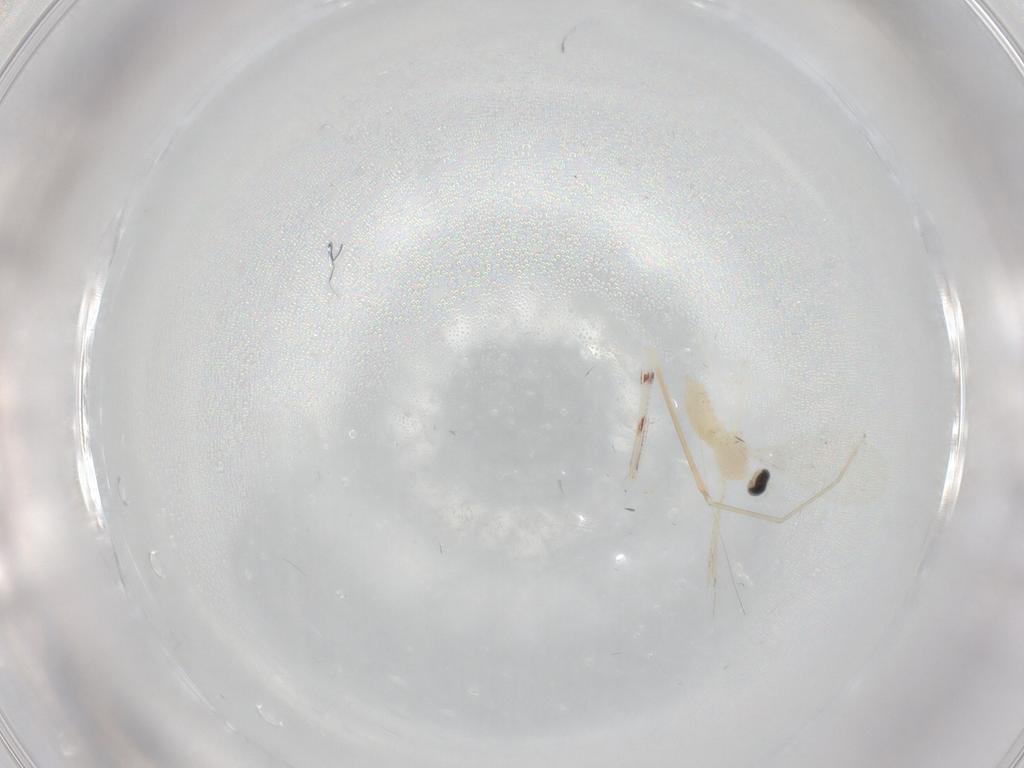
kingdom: Animalia
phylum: Arthropoda
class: Insecta
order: Diptera
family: Cecidomyiidae
